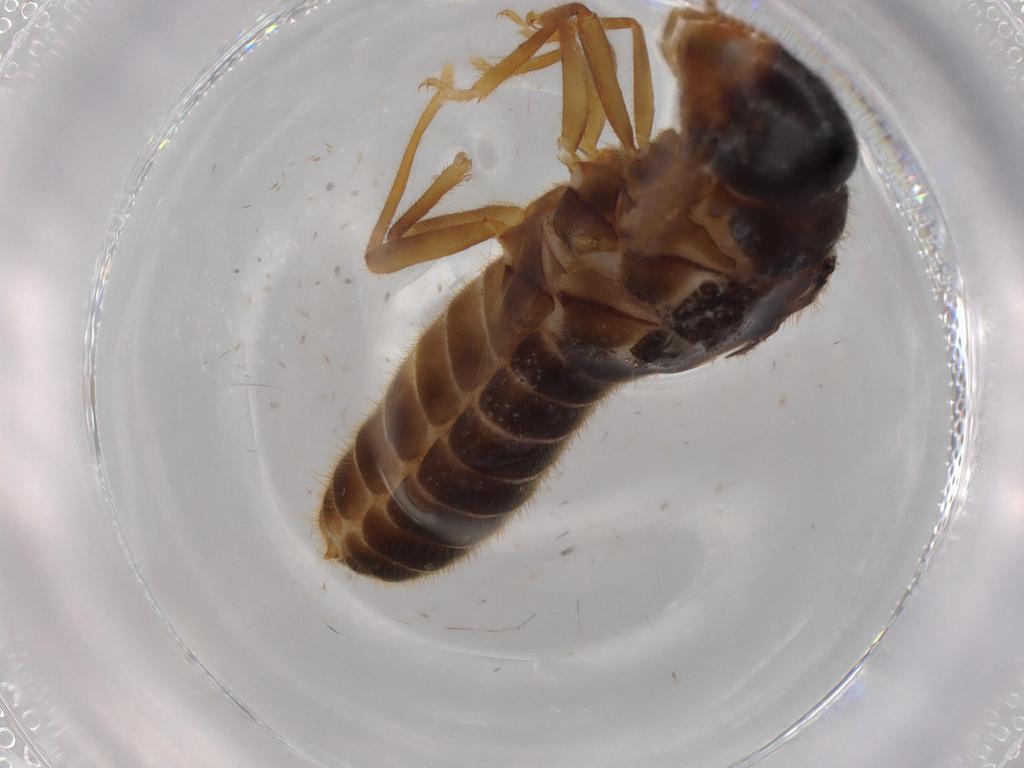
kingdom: Animalia
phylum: Arthropoda
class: Insecta
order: Blattodea
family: Termitidae
